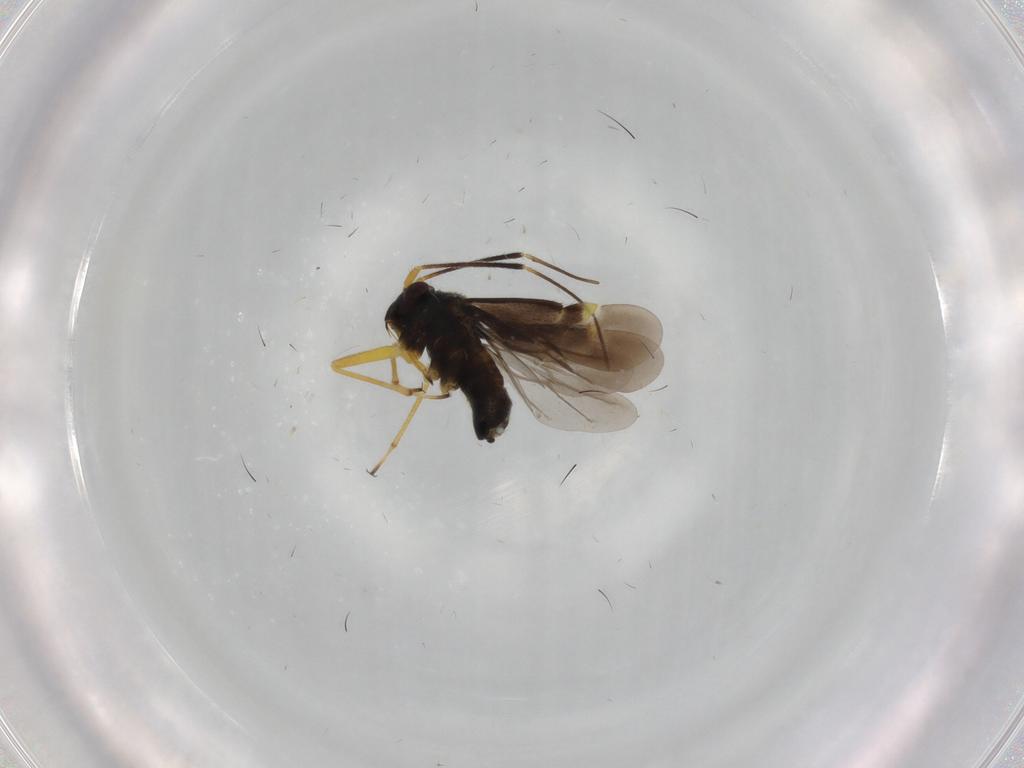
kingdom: Animalia
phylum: Arthropoda
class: Insecta
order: Hemiptera
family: Miridae
